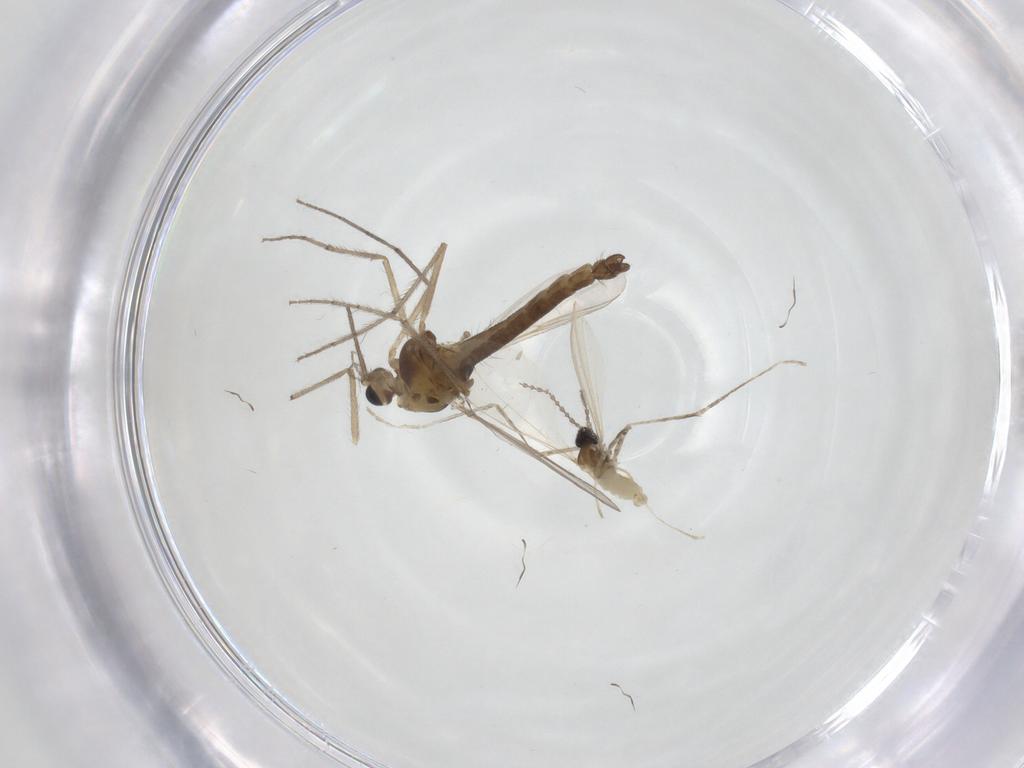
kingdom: Animalia
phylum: Arthropoda
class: Insecta
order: Diptera
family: Cecidomyiidae
